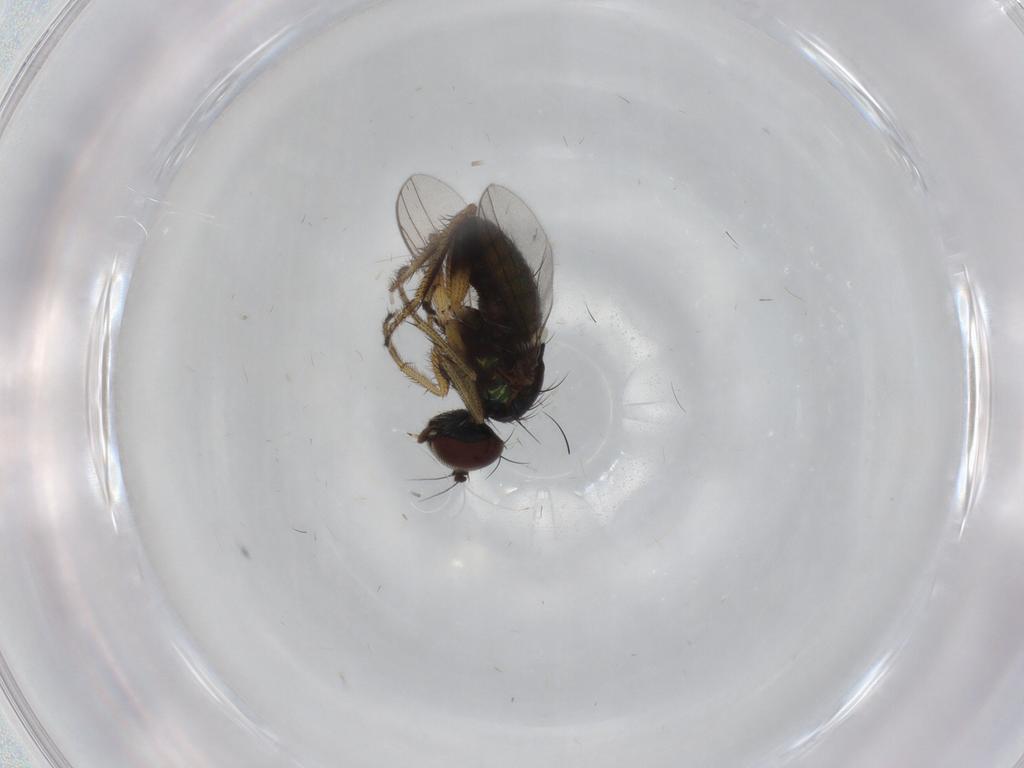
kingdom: Animalia
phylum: Arthropoda
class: Insecta
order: Diptera
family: Dolichopodidae
